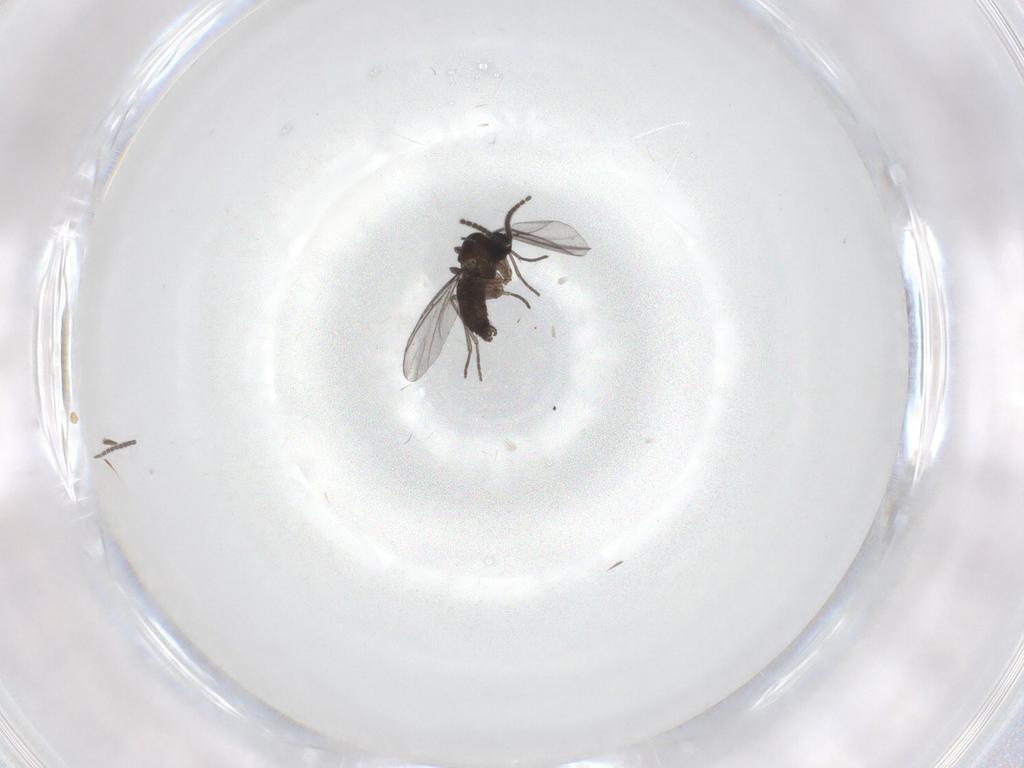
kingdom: Animalia
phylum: Arthropoda
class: Insecta
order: Diptera
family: Sciaridae
